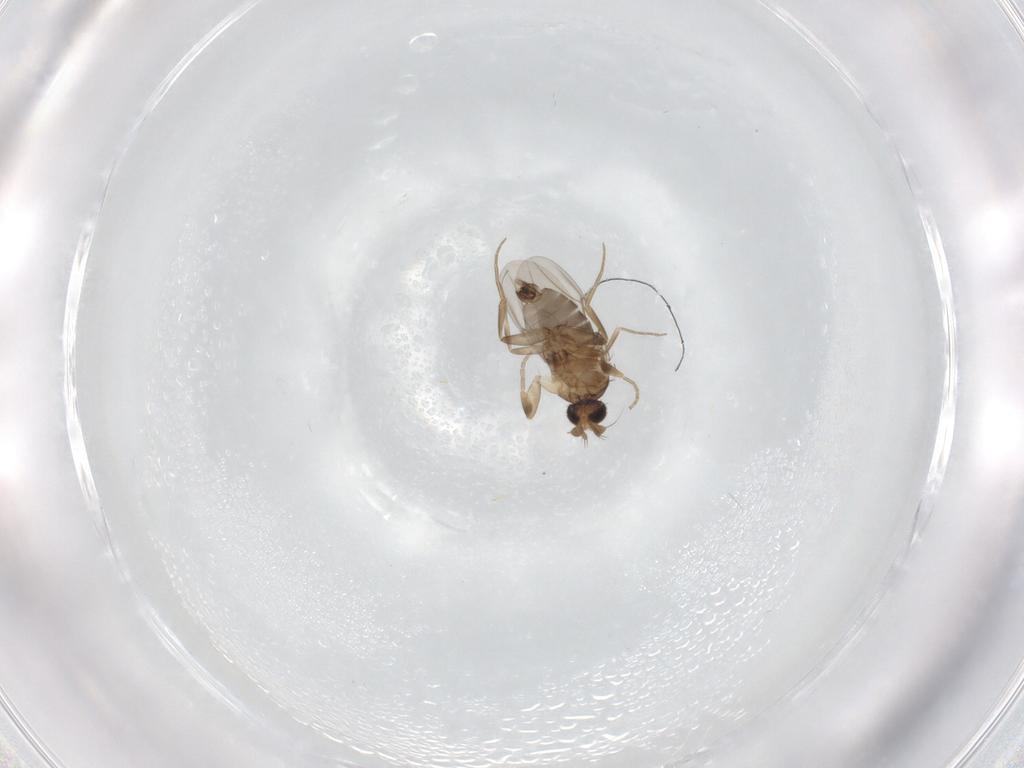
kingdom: Animalia
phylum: Arthropoda
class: Insecta
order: Diptera
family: Phoridae
